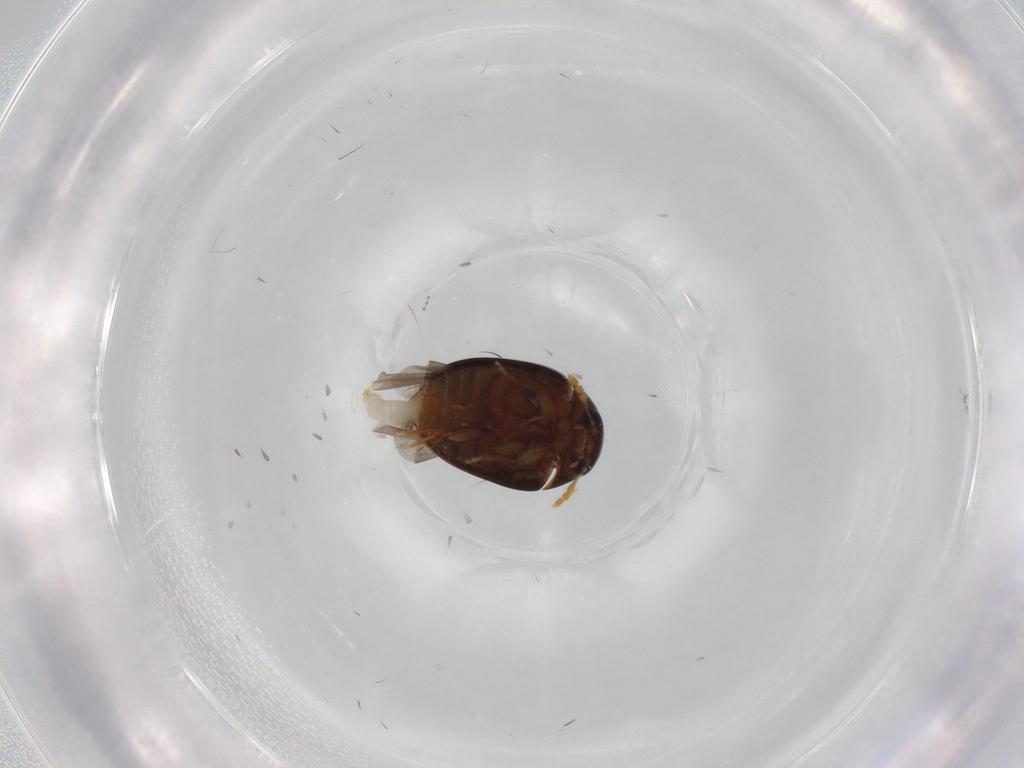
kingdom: Animalia
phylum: Arthropoda
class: Insecta
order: Coleoptera
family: Chrysomelidae
